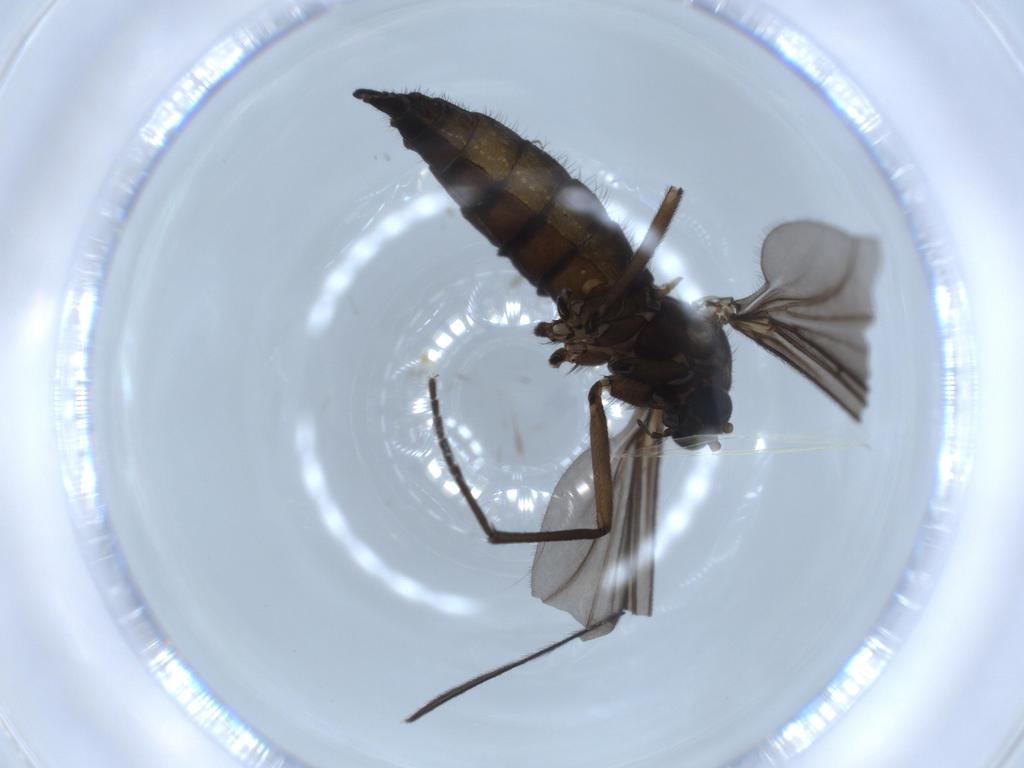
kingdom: Animalia
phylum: Arthropoda
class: Insecta
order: Diptera
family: Sciaridae
